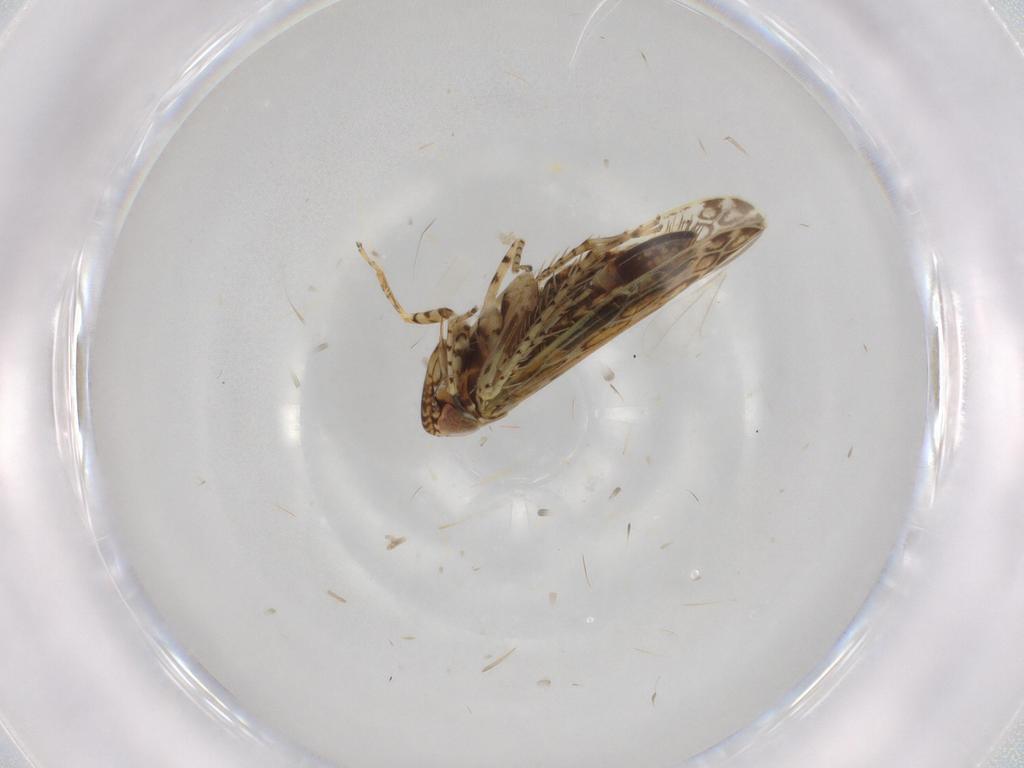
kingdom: Animalia
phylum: Arthropoda
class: Insecta
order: Hemiptera
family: Cicadellidae
